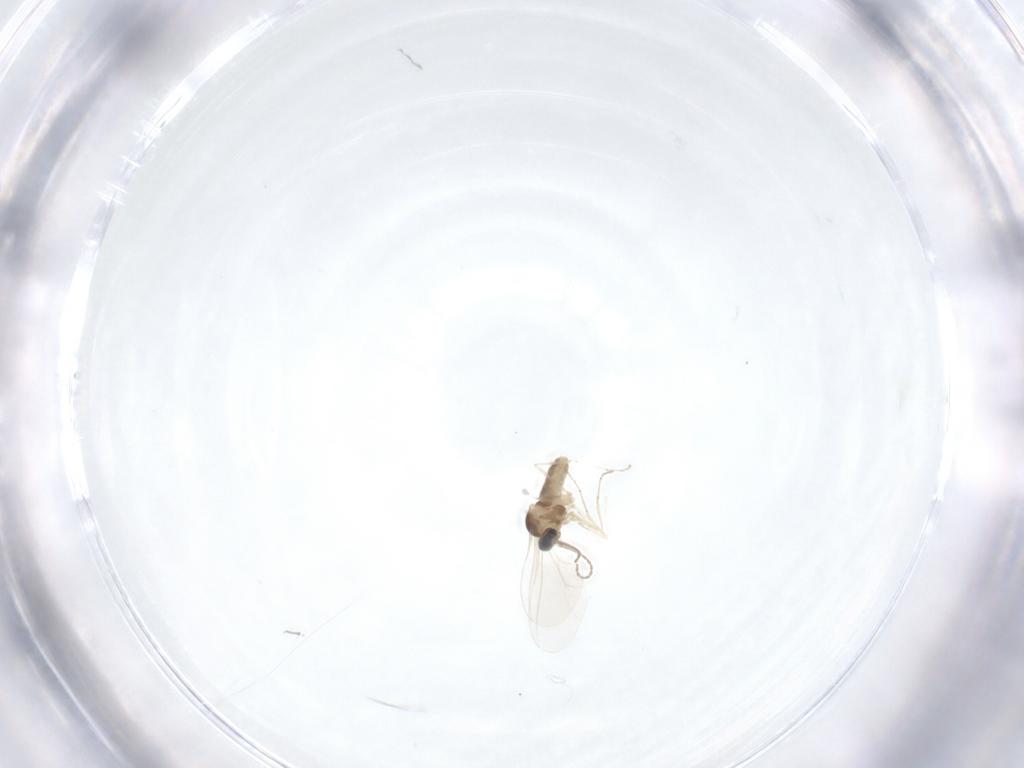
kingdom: Animalia
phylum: Arthropoda
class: Insecta
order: Diptera
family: Cecidomyiidae
